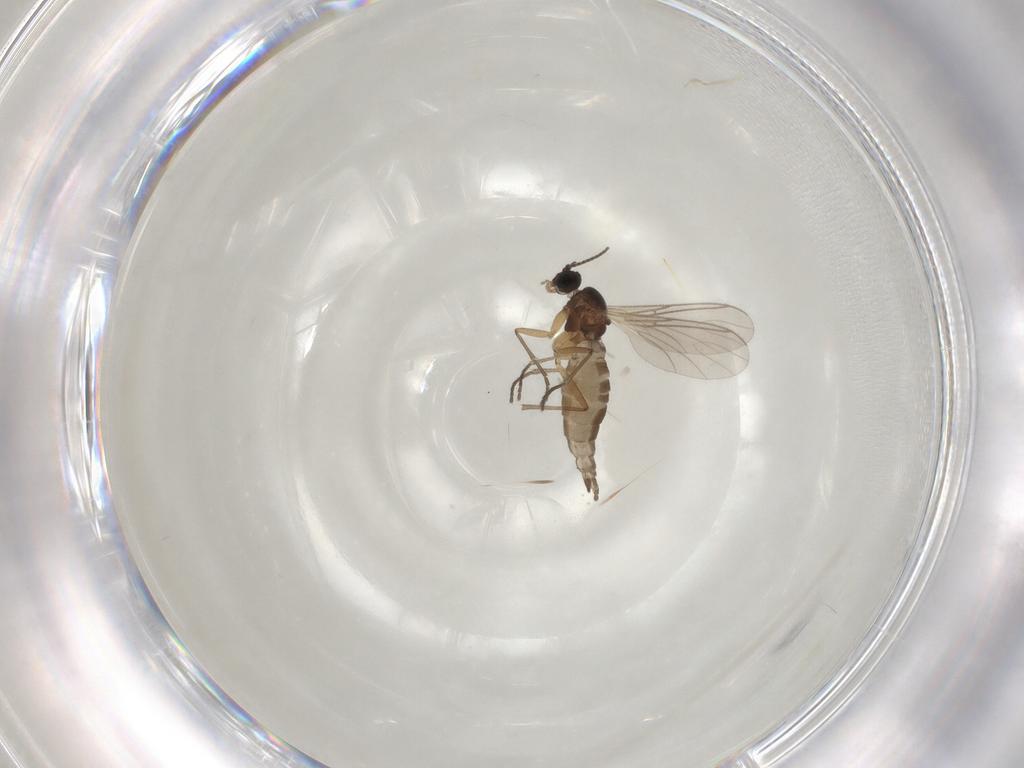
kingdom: Animalia
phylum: Arthropoda
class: Insecta
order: Diptera
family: Sciaridae
